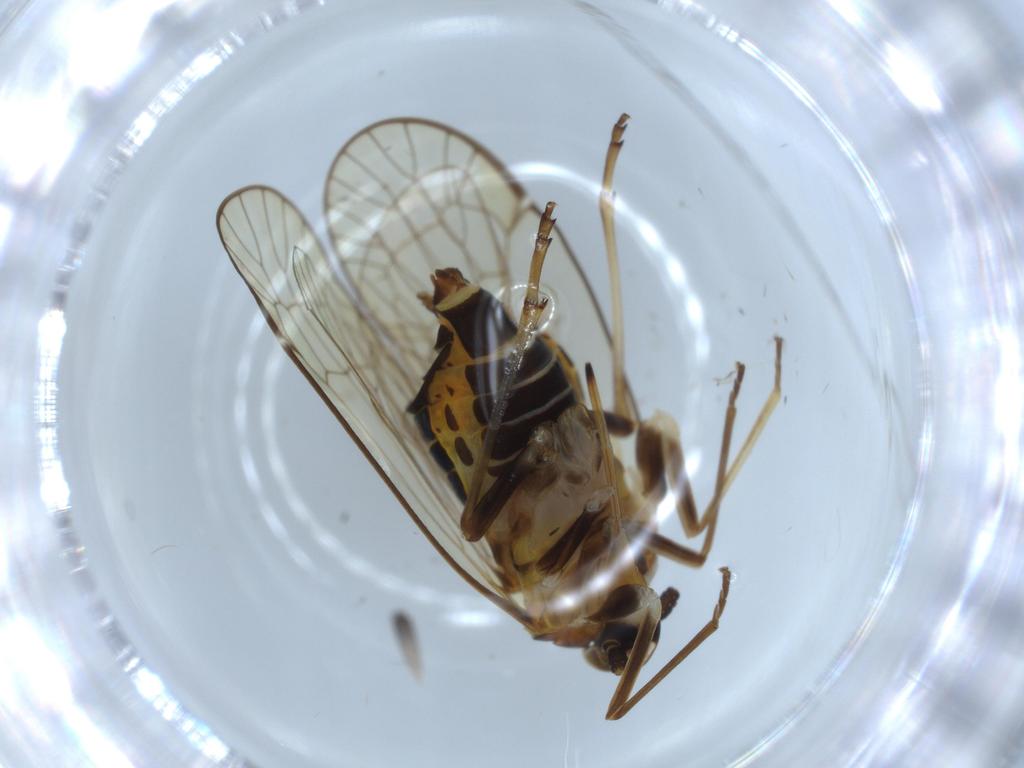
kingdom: Animalia
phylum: Arthropoda
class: Insecta
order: Hemiptera
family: Kinnaridae
